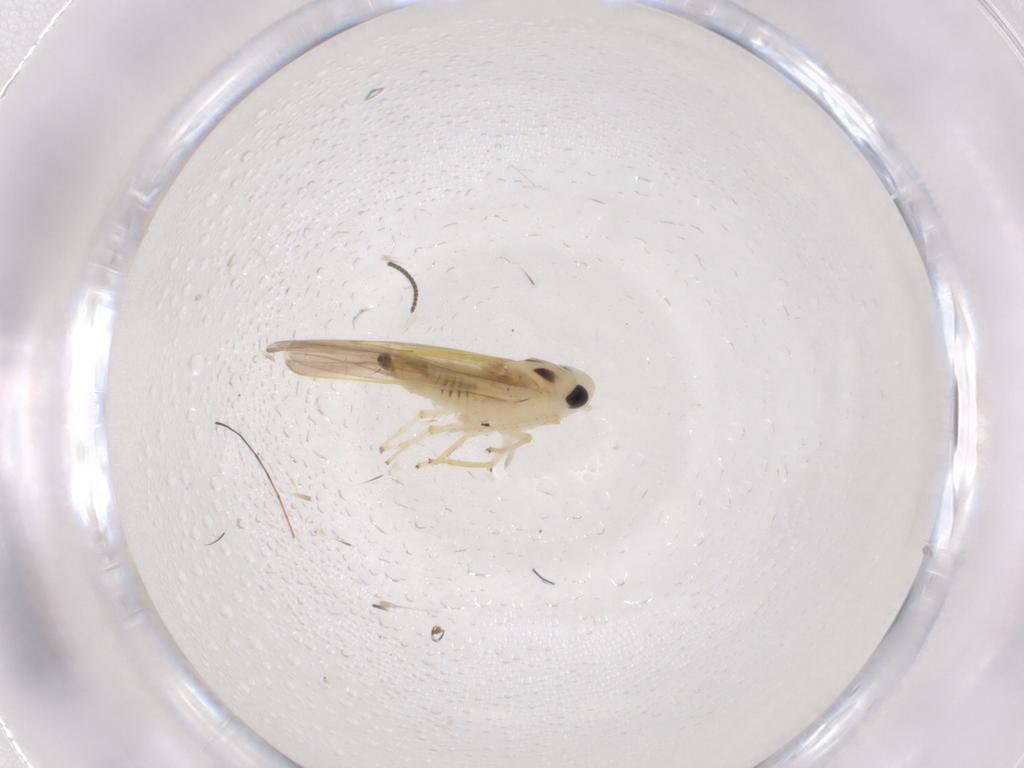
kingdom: Animalia
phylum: Arthropoda
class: Insecta
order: Hemiptera
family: Cicadellidae
